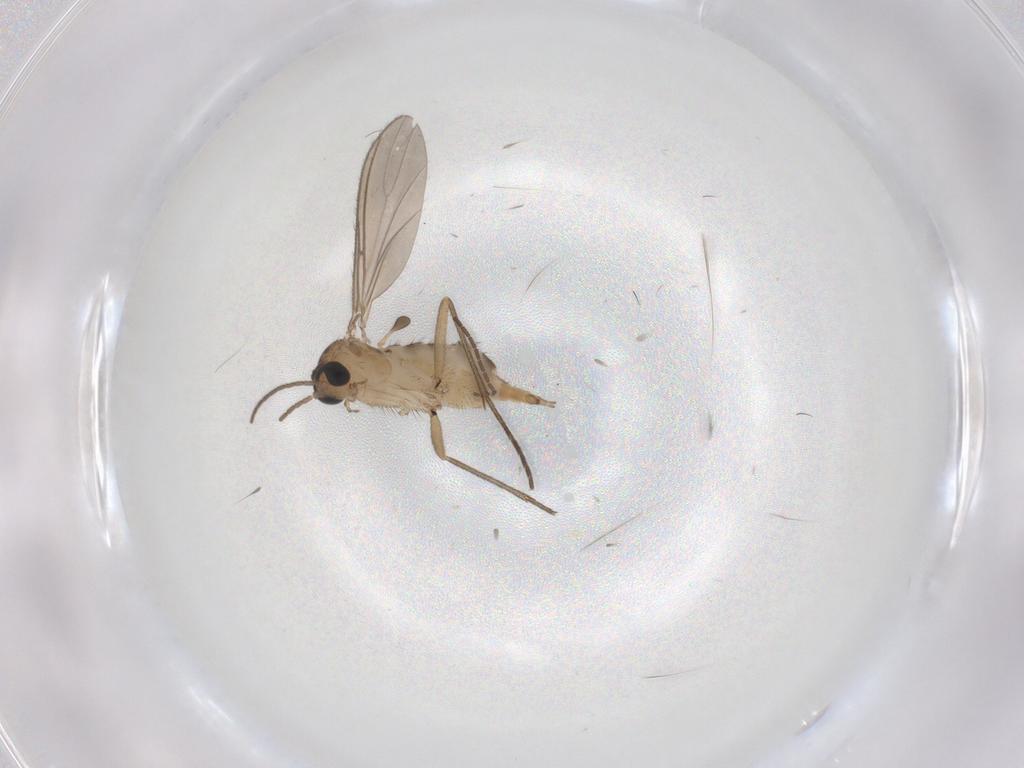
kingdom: Animalia
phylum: Arthropoda
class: Insecta
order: Diptera
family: Sciaridae
